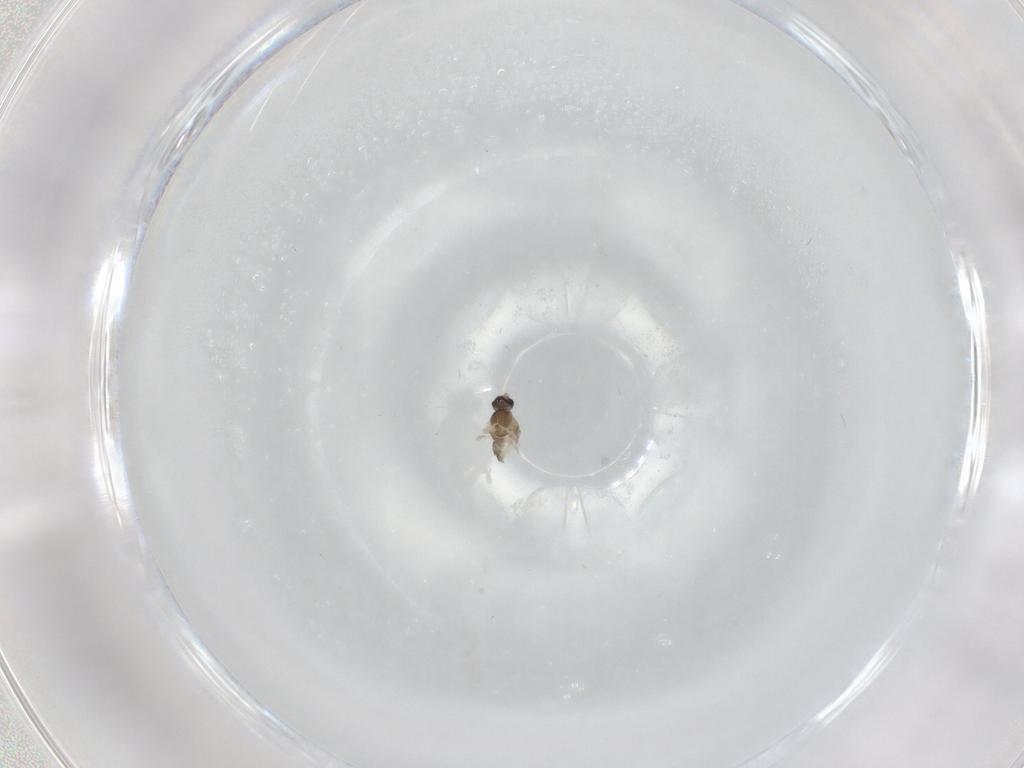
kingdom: Animalia
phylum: Arthropoda
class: Insecta
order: Diptera
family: Cecidomyiidae
